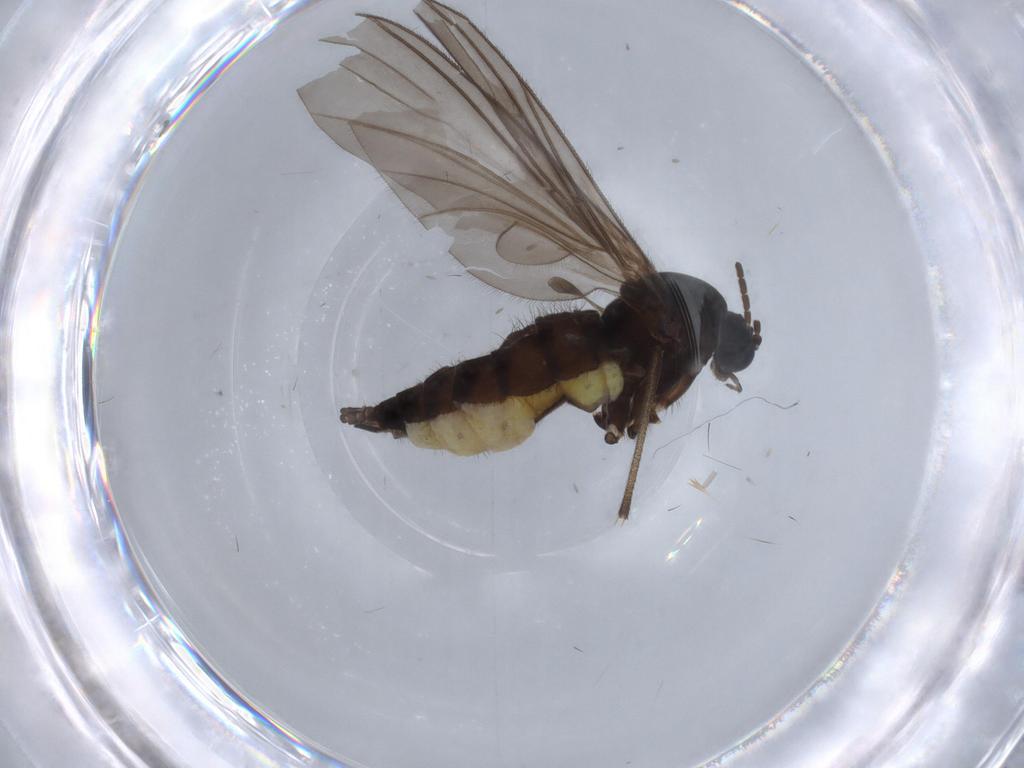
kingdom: Animalia
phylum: Arthropoda
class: Insecta
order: Diptera
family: Sciaridae
